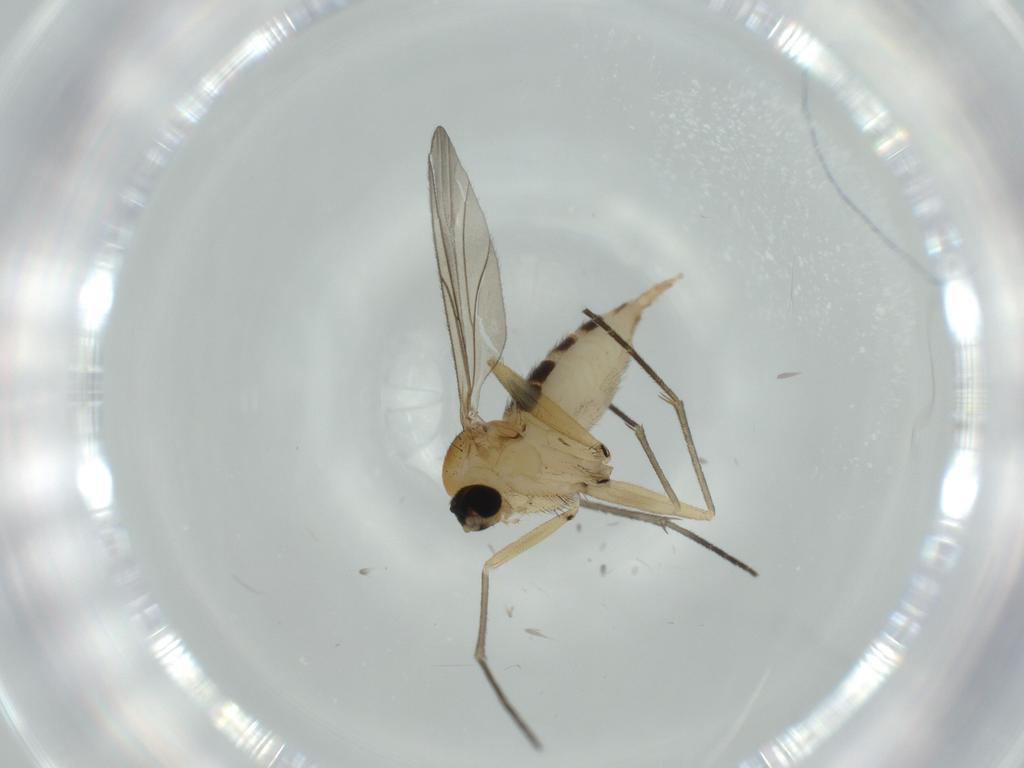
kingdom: Animalia
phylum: Arthropoda
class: Insecta
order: Diptera
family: Sciaridae
